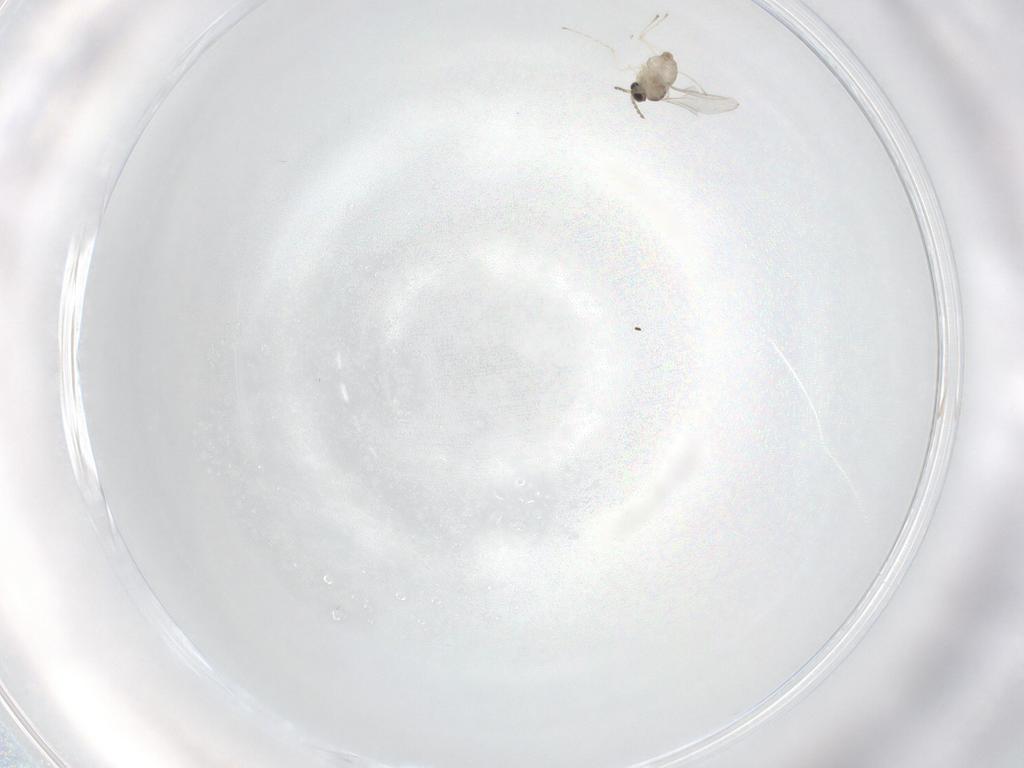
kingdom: Animalia
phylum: Arthropoda
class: Insecta
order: Diptera
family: Cecidomyiidae
